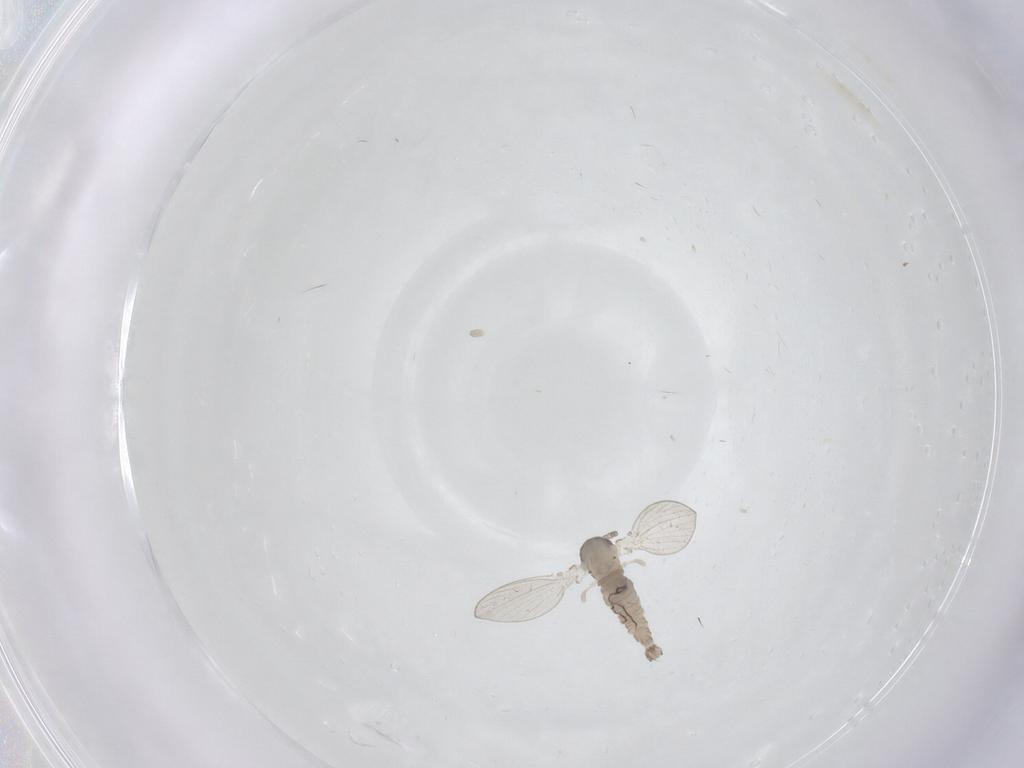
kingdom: Animalia
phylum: Arthropoda
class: Insecta
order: Diptera
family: Psychodidae
